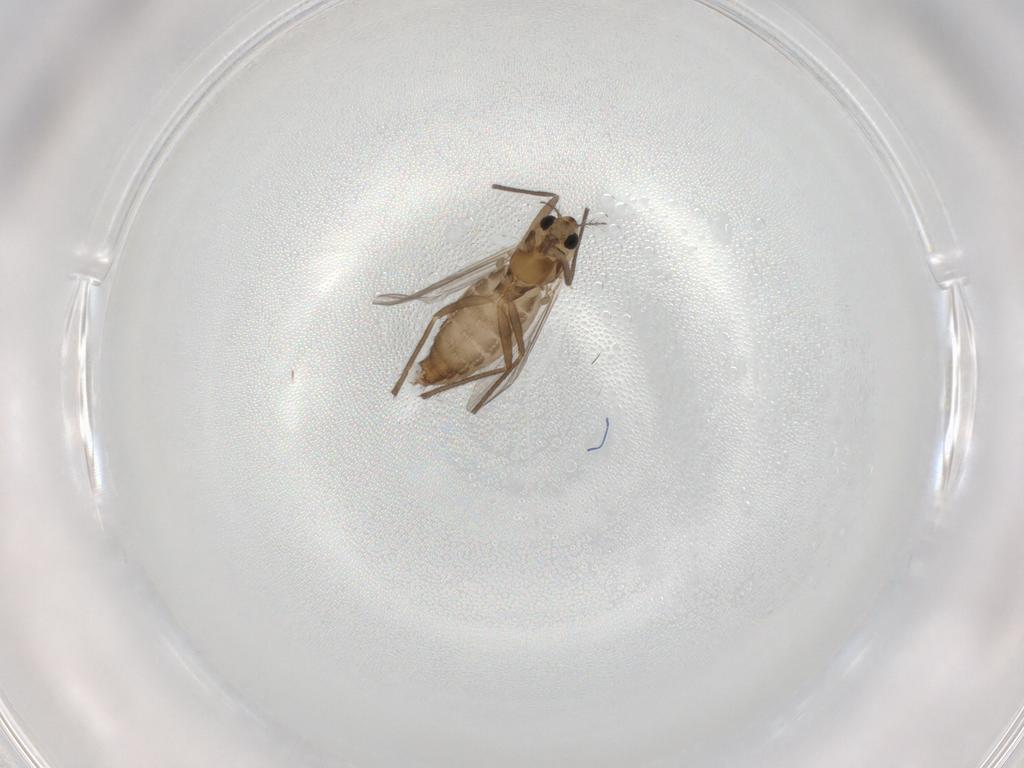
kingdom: Animalia
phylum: Arthropoda
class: Insecta
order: Diptera
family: Chironomidae
